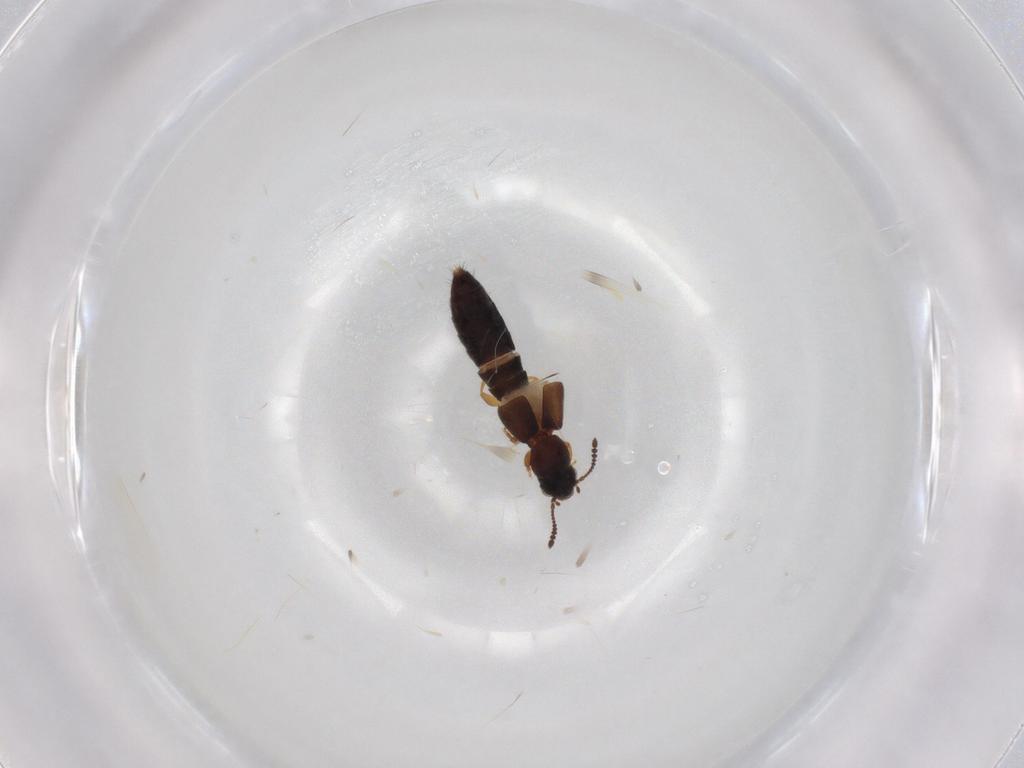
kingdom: Animalia
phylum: Arthropoda
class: Insecta
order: Coleoptera
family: Staphylinidae
